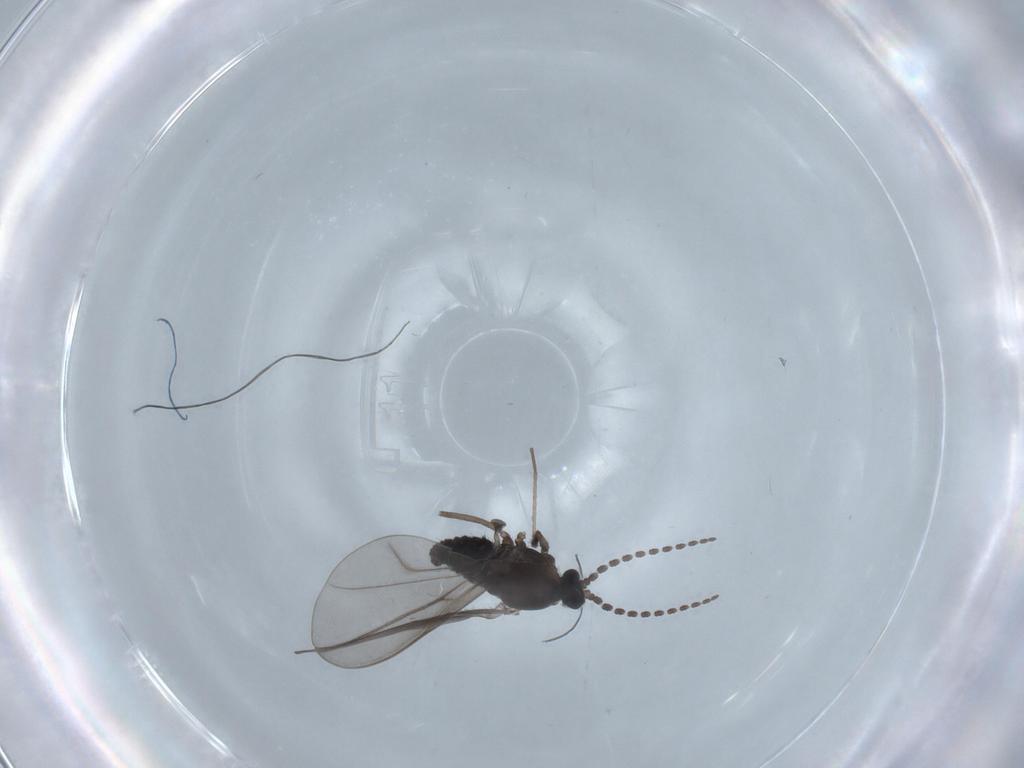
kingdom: Animalia
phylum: Arthropoda
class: Insecta
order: Diptera
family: Cecidomyiidae
